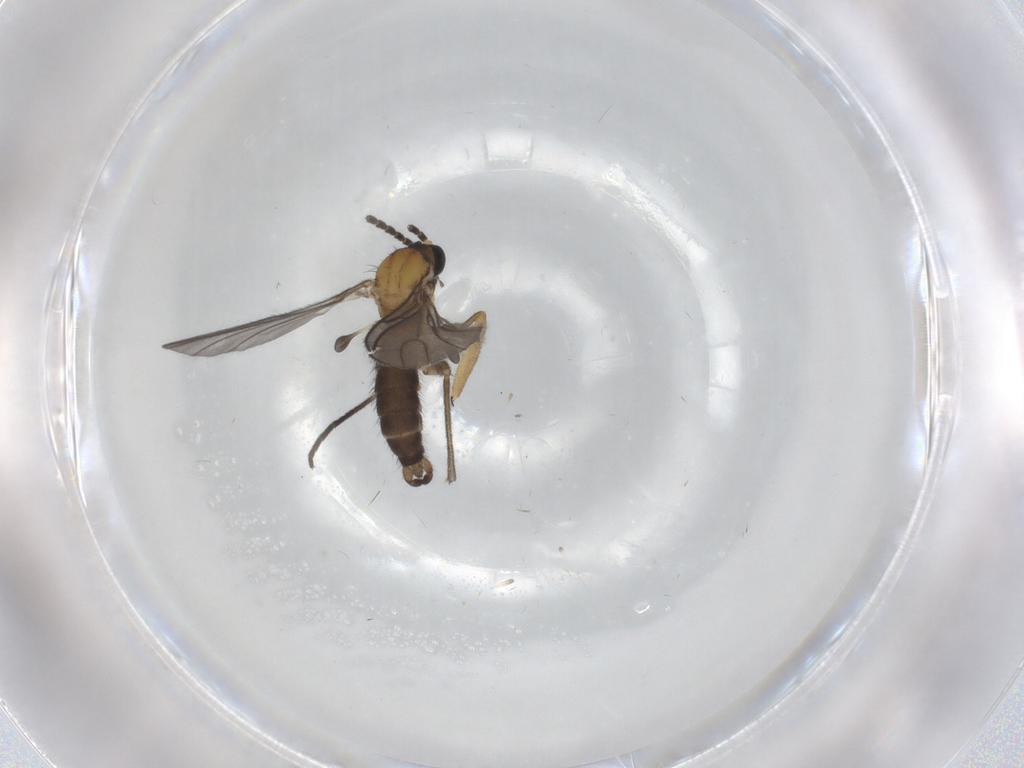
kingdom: Animalia
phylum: Arthropoda
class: Insecta
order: Diptera
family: Sciaridae
